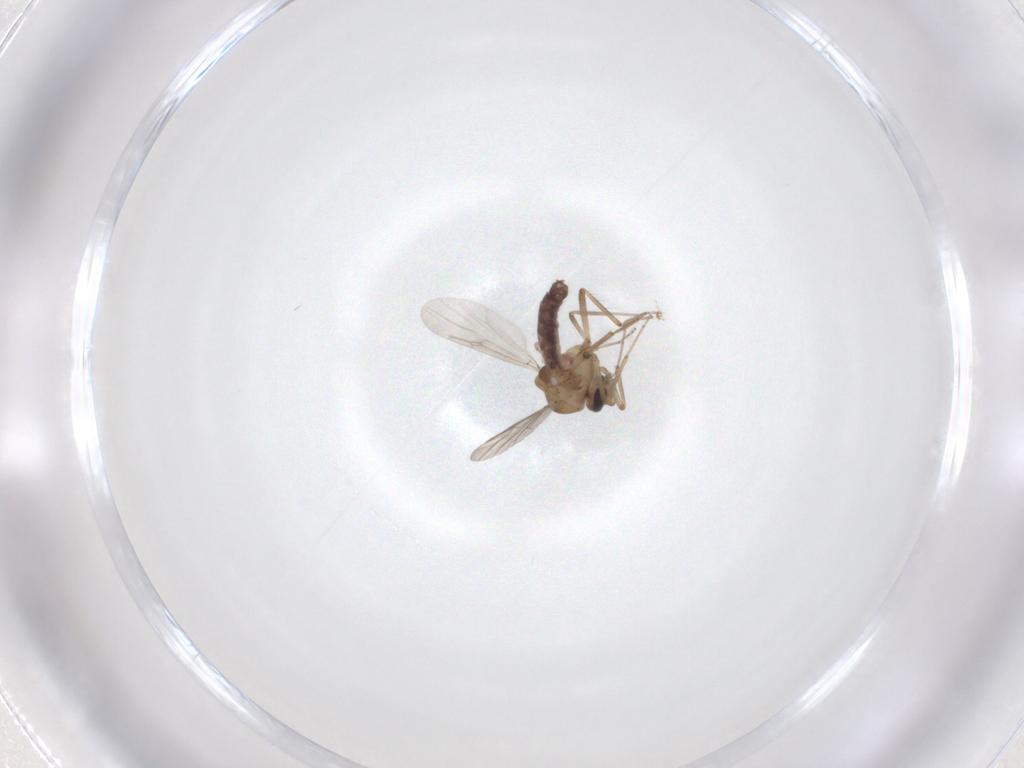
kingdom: Animalia
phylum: Arthropoda
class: Insecta
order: Diptera
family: Ceratopogonidae
